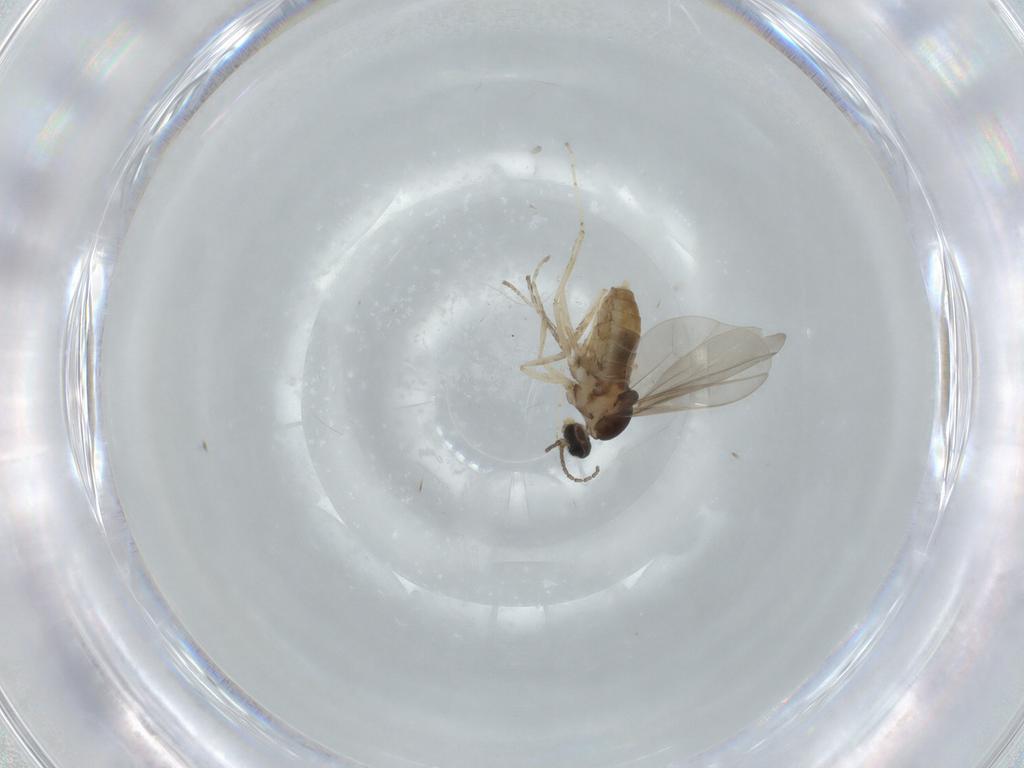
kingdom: Animalia
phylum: Arthropoda
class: Insecta
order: Diptera
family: Cecidomyiidae
